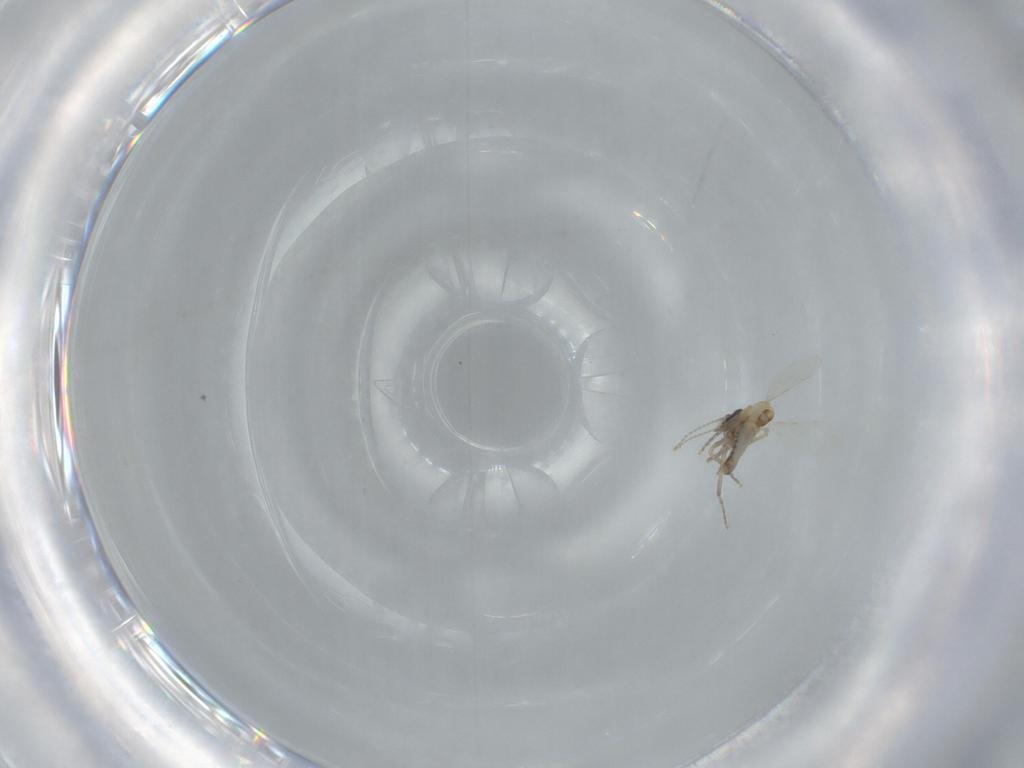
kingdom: Animalia
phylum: Arthropoda
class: Insecta
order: Diptera
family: Ceratopogonidae
